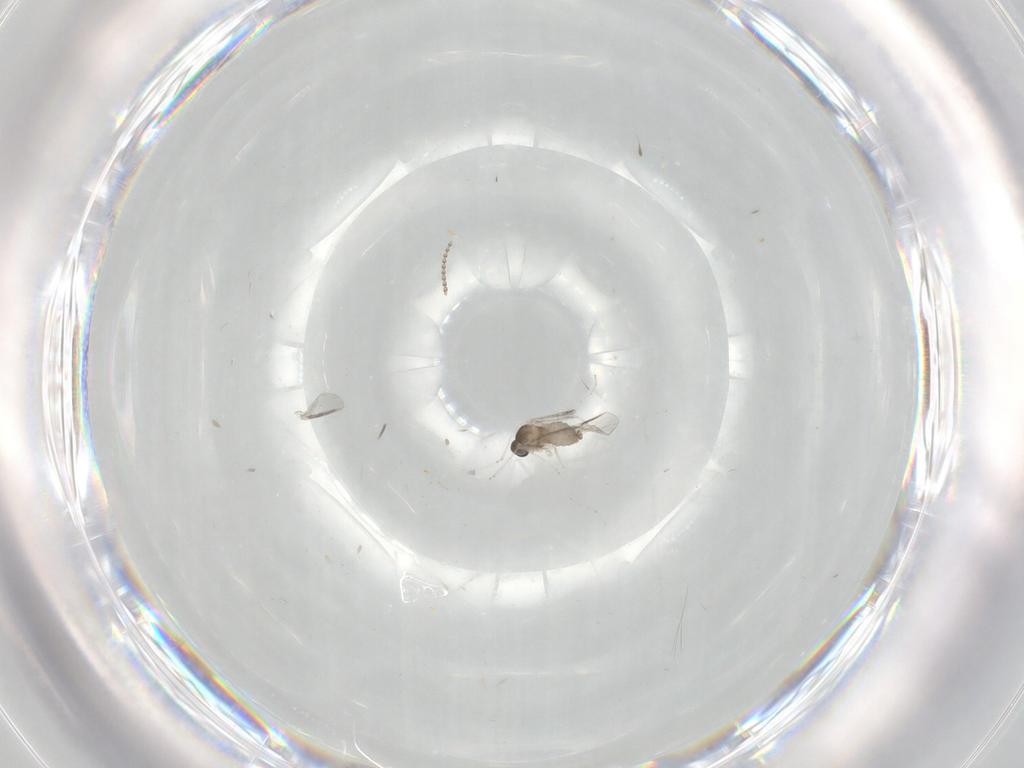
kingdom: Animalia
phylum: Arthropoda
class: Insecta
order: Diptera
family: Cecidomyiidae
